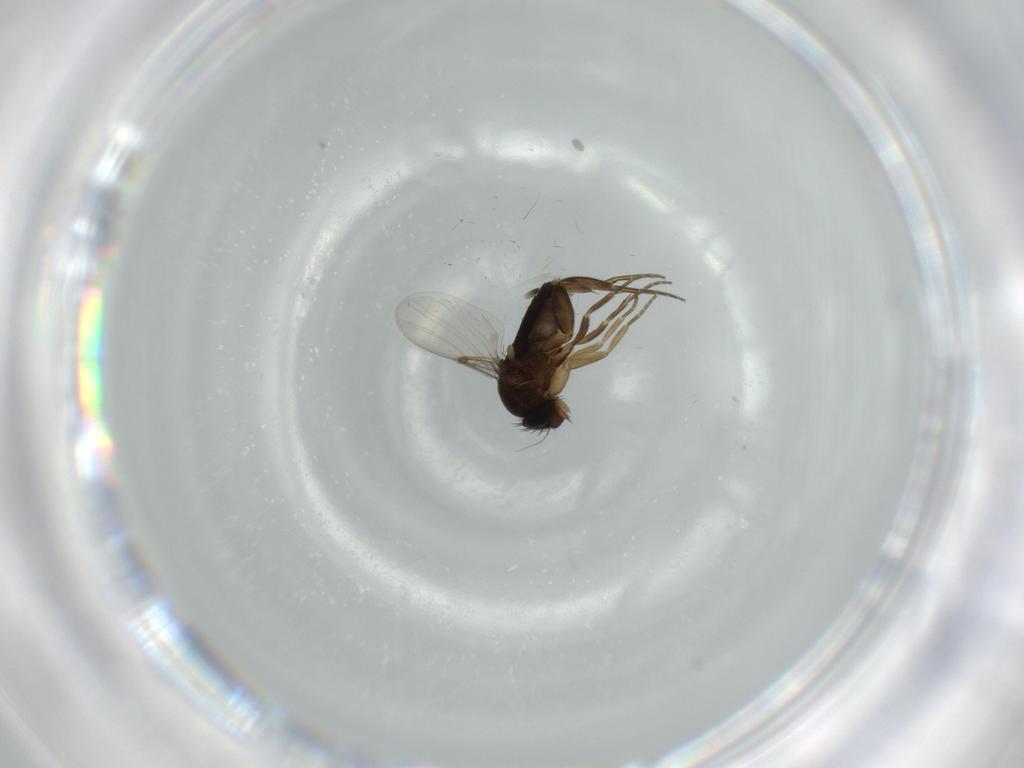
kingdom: Animalia
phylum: Arthropoda
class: Insecta
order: Diptera
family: Phoridae
